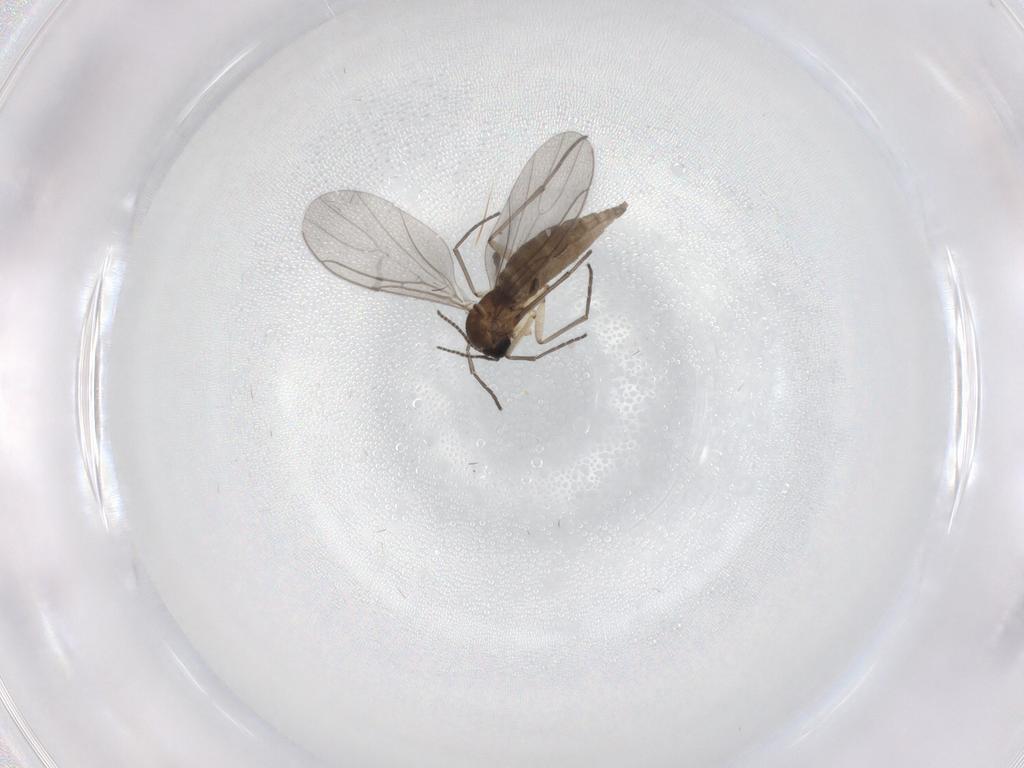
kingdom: Animalia
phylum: Arthropoda
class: Insecta
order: Diptera
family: Sciaridae
